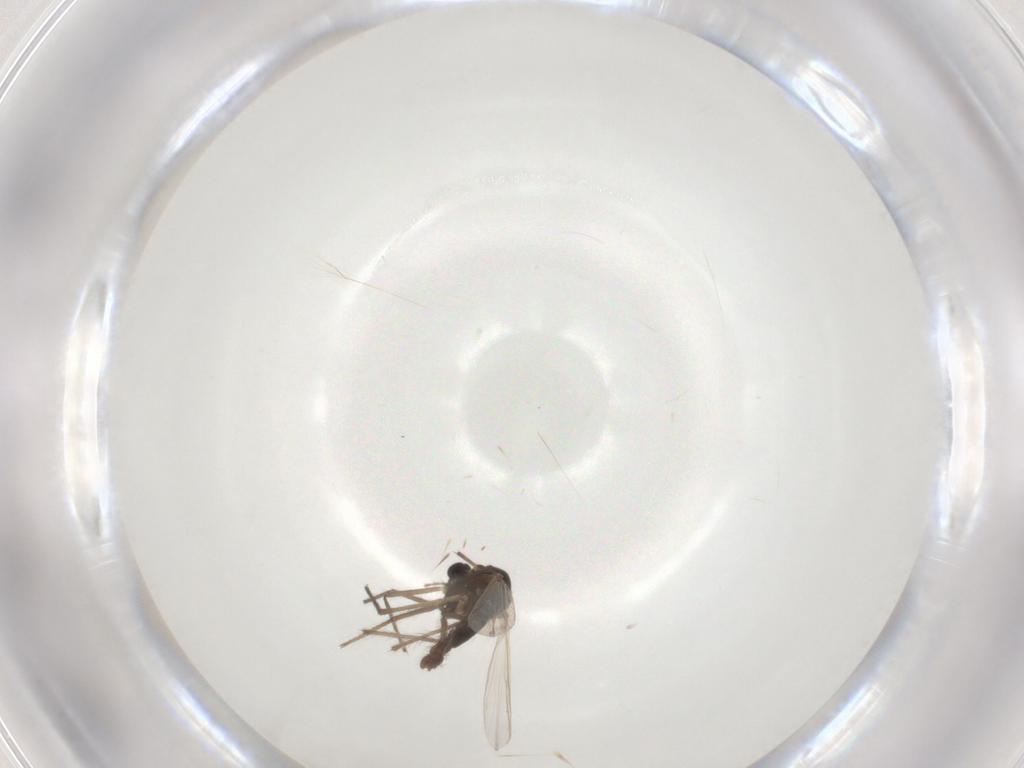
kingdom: Animalia
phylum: Arthropoda
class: Insecta
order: Diptera
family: Chironomidae
